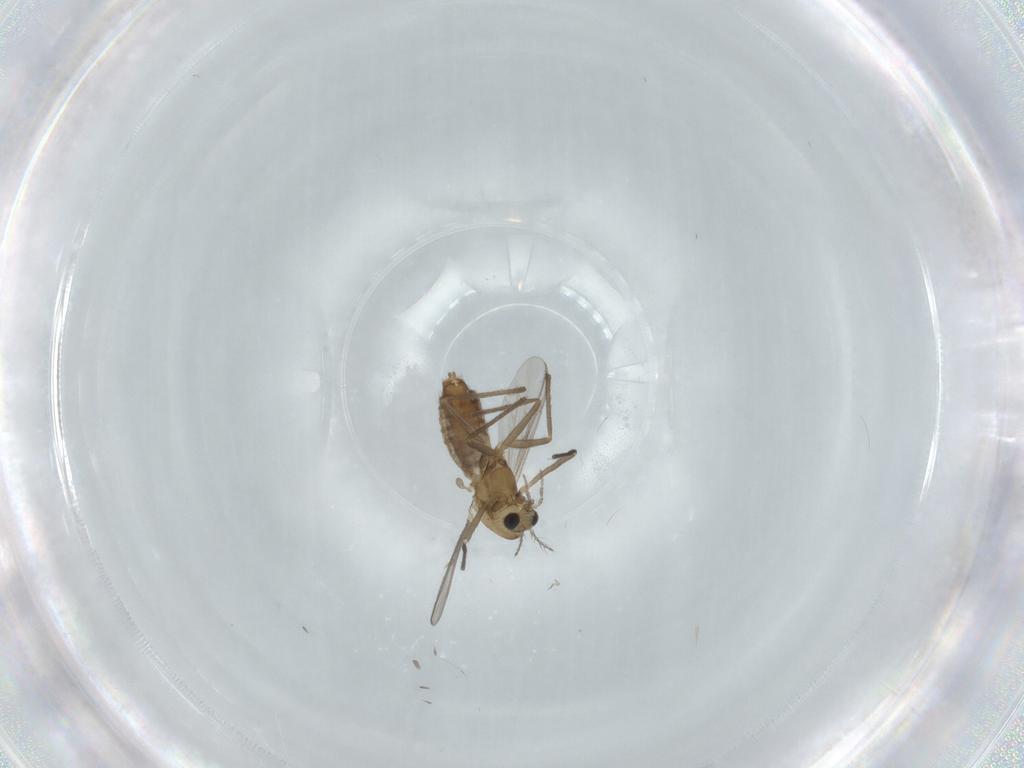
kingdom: Animalia
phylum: Arthropoda
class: Insecta
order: Diptera
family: Chironomidae
